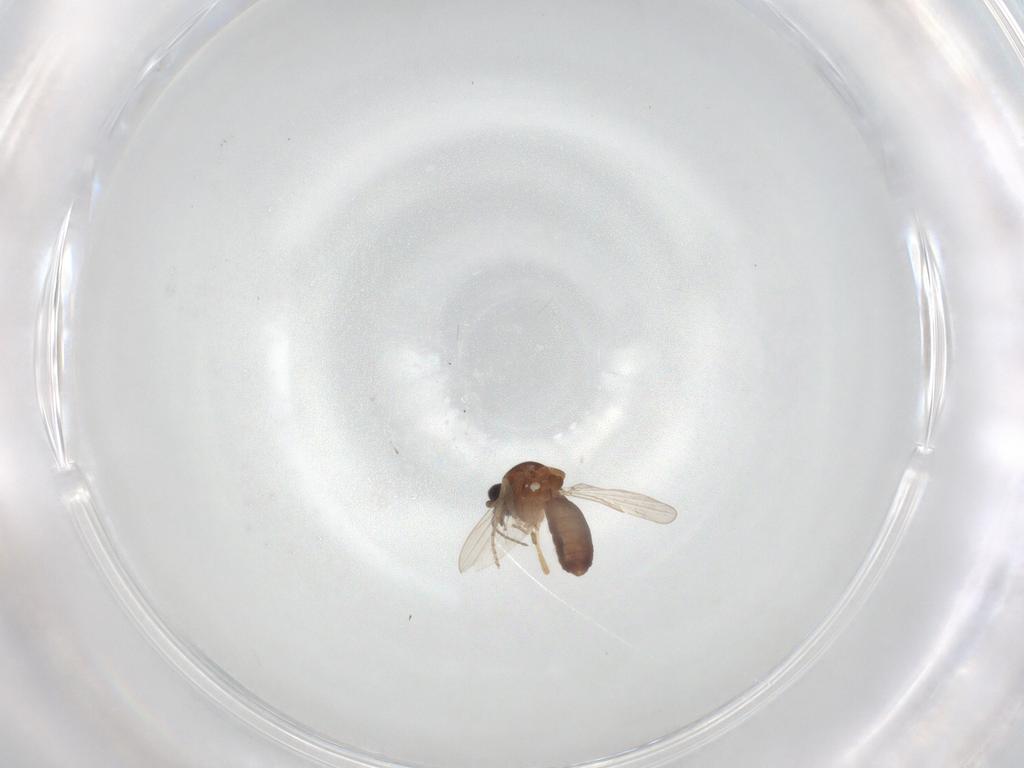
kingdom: Animalia
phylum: Arthropoda
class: Insecta
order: Diptera
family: Ceratopogonidae
